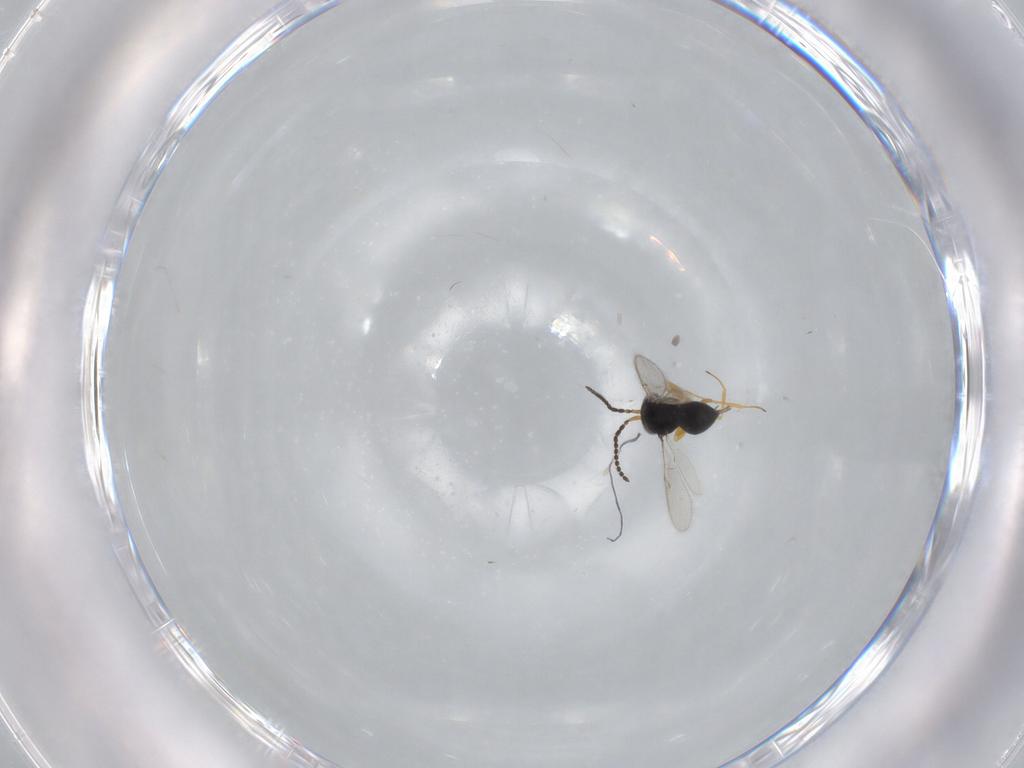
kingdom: Animalia
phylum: Arthropoda
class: Insecta
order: Hymenoptera
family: Scelionidae
